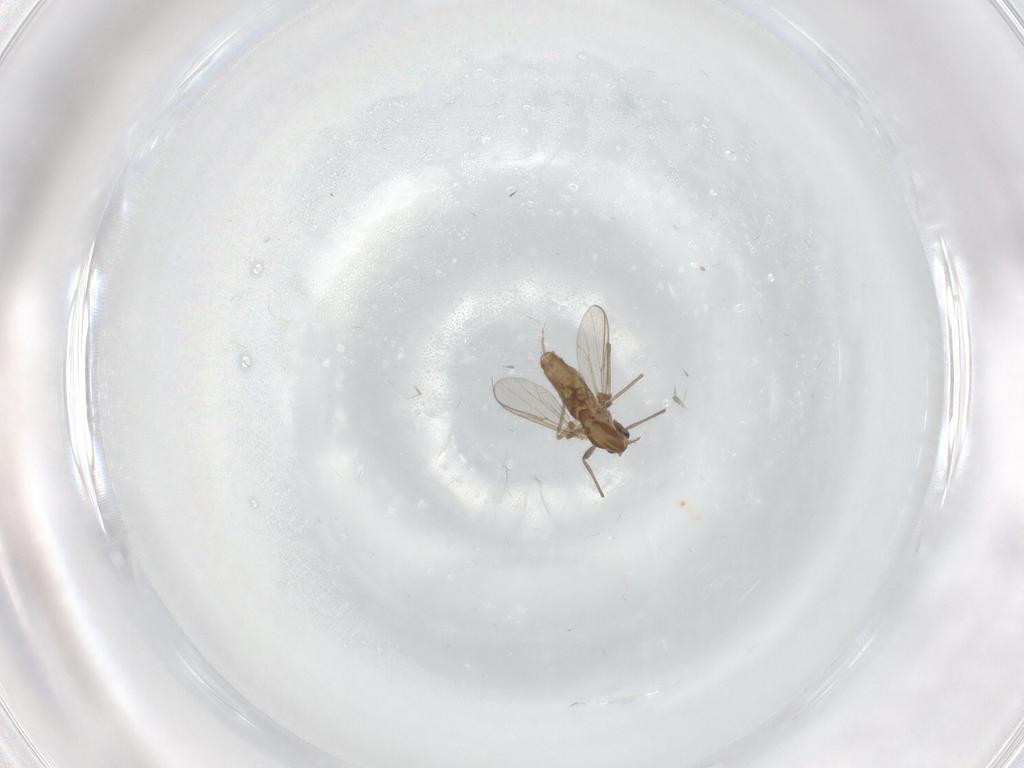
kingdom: Animalia
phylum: Arthropoda
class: Insecta
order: Diptera
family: Chironomidae
